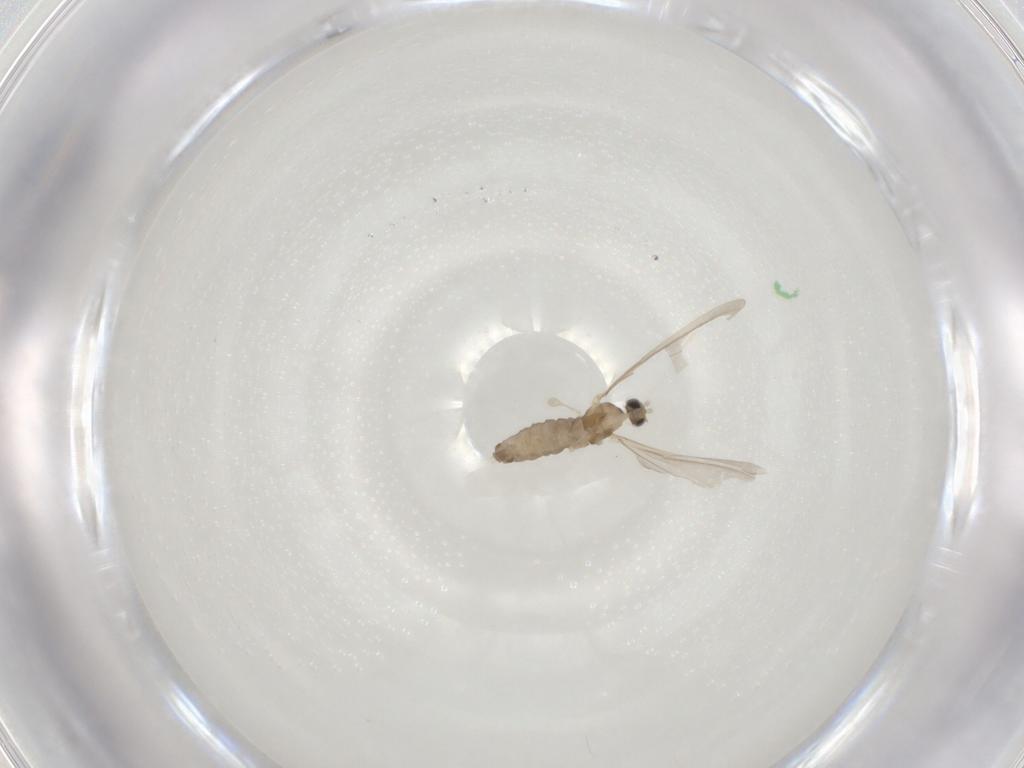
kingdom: Animalia
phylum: Arthropoda
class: Insecta
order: Diptera
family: Cecidomyiidae
